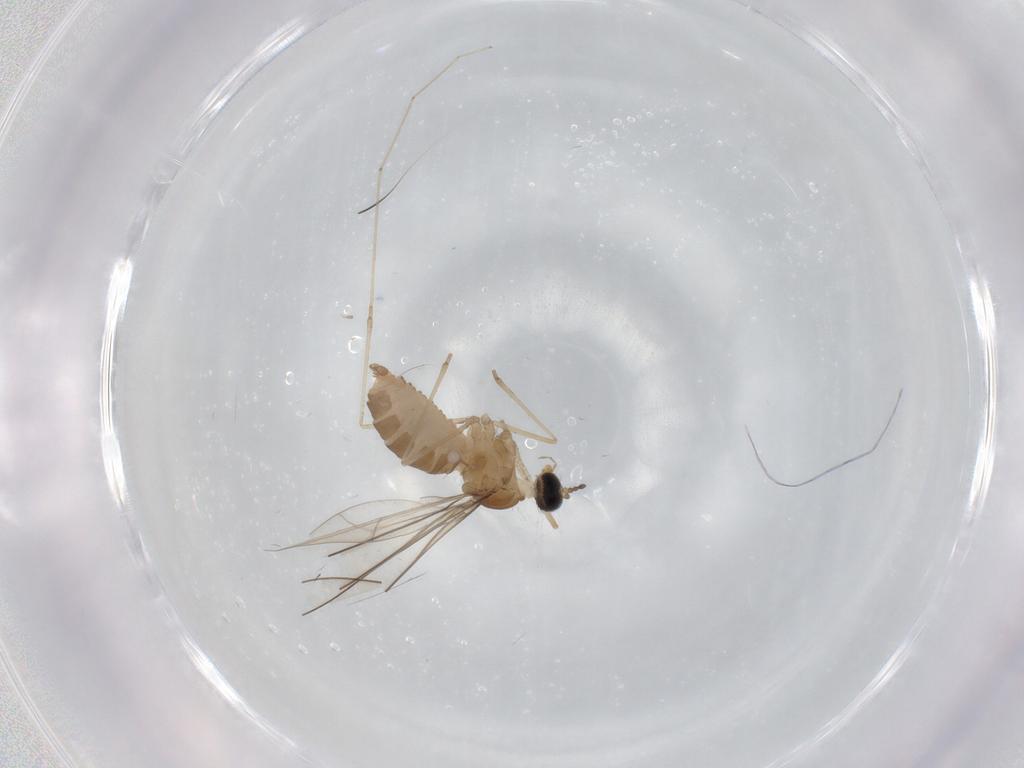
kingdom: Animalia
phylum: Arthropoda
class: Insecta
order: Diptera
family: Cecidomyiidae
